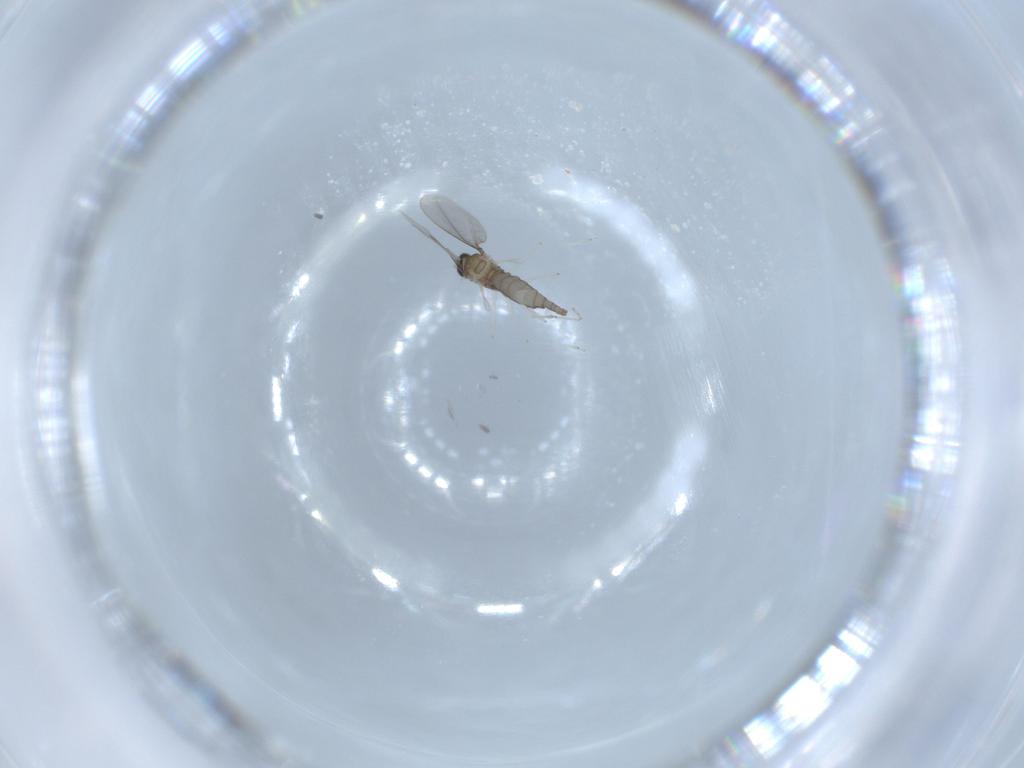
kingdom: Animalia
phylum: Arthropoda
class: Insecta
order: Diptera
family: Cecidomyiidae
